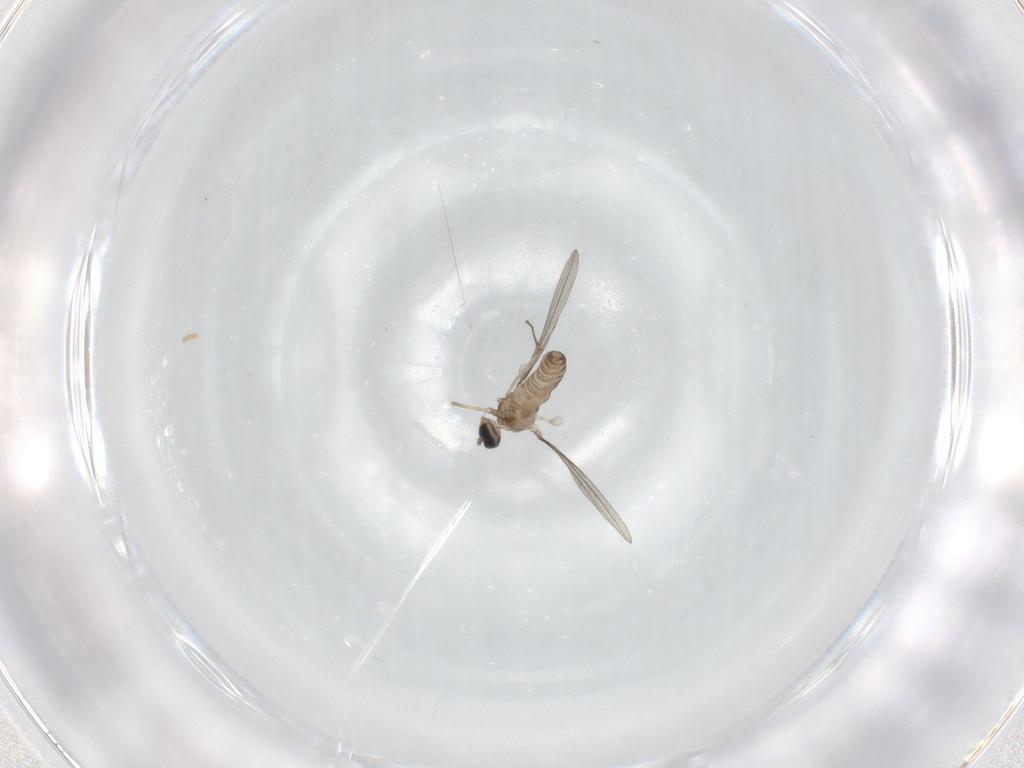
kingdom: Animalia
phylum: Arthropoda
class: Insecta
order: Diptera
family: Cecidomyiidae
